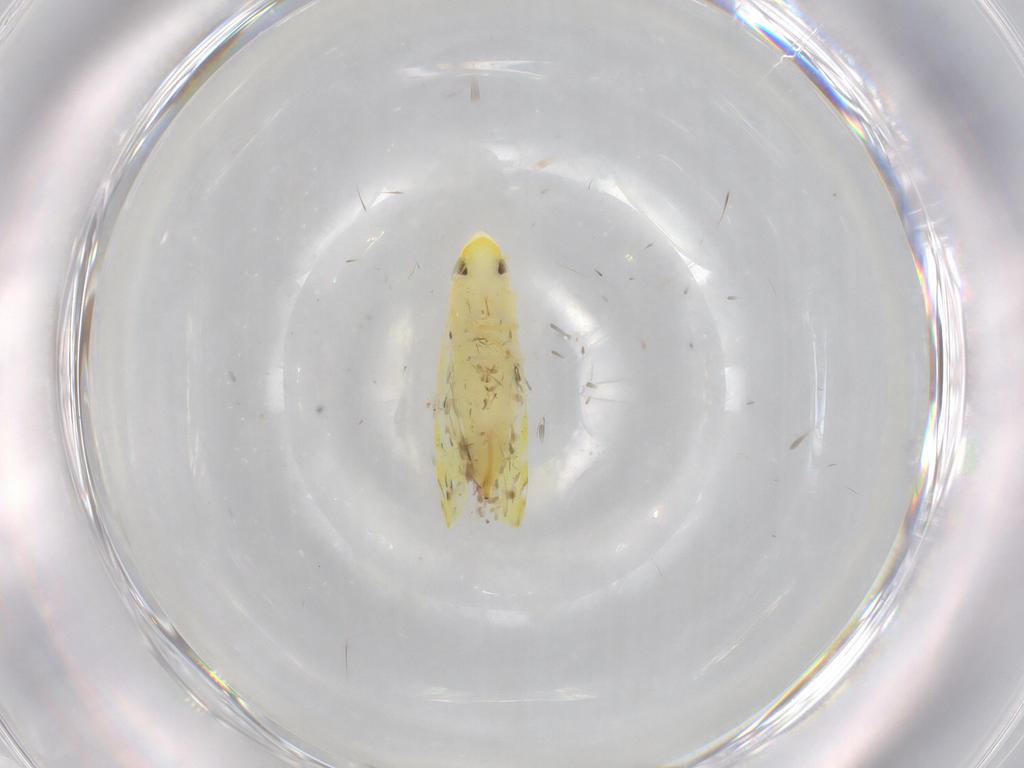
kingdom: Animalia
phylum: Arthropoda
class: Insecta
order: Hemiptera
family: Cicadellidae
